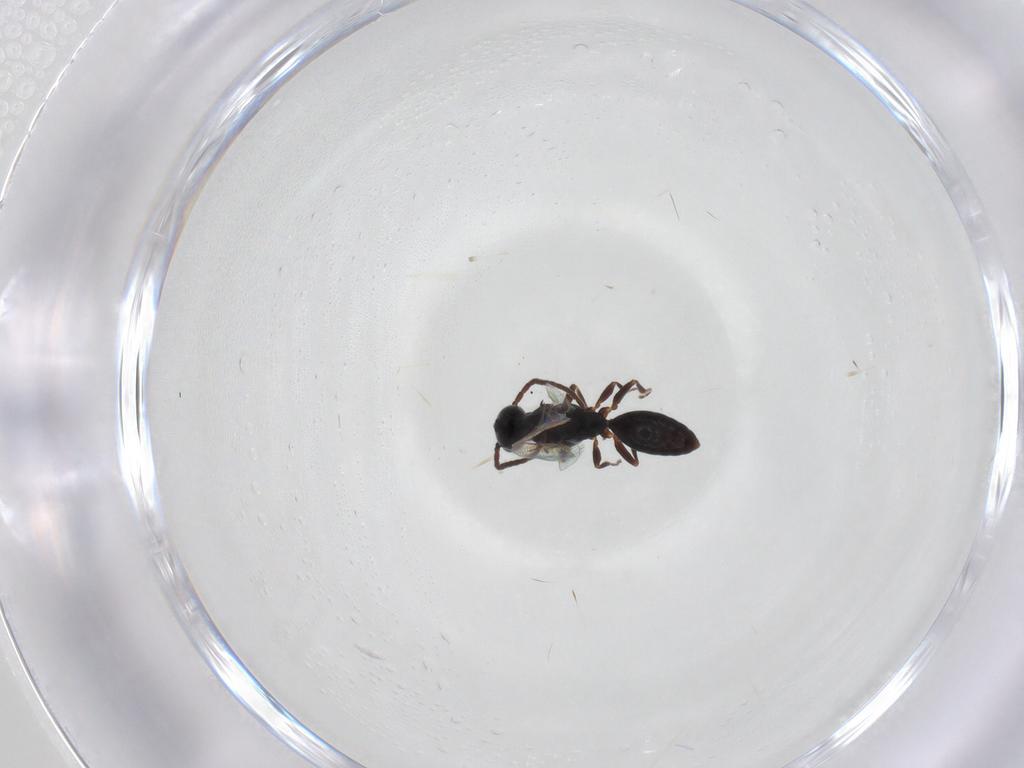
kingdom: Animalia
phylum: Arthropoda
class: Insecta
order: Hymenoptera
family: Bethylidae
